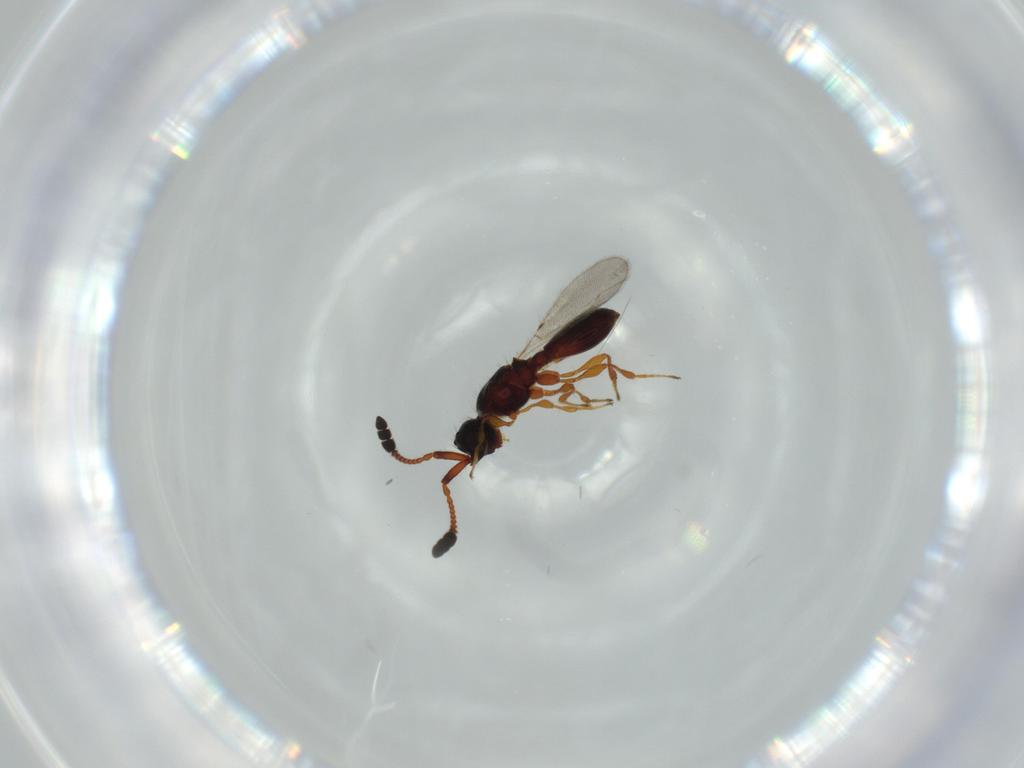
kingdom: Animalia
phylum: Arthropoda
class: Insecta
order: Hymenoptera
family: Diapriidae
